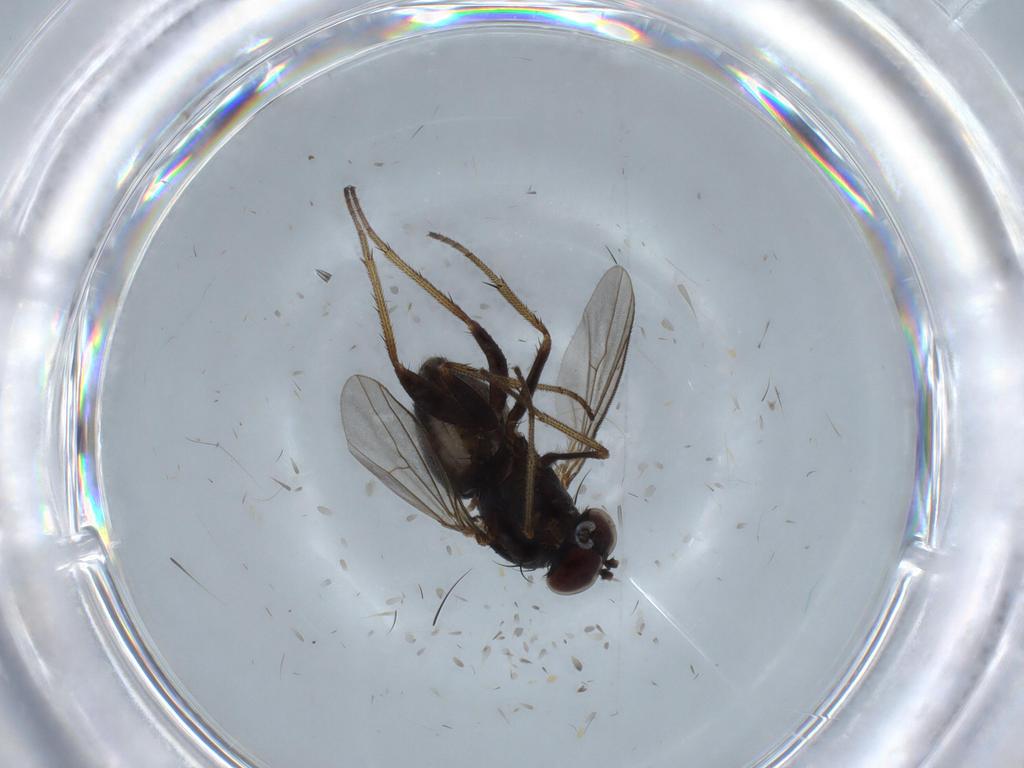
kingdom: Animalia
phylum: Arthropoda
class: Insecta
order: Diptera
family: Dolichopodidae
